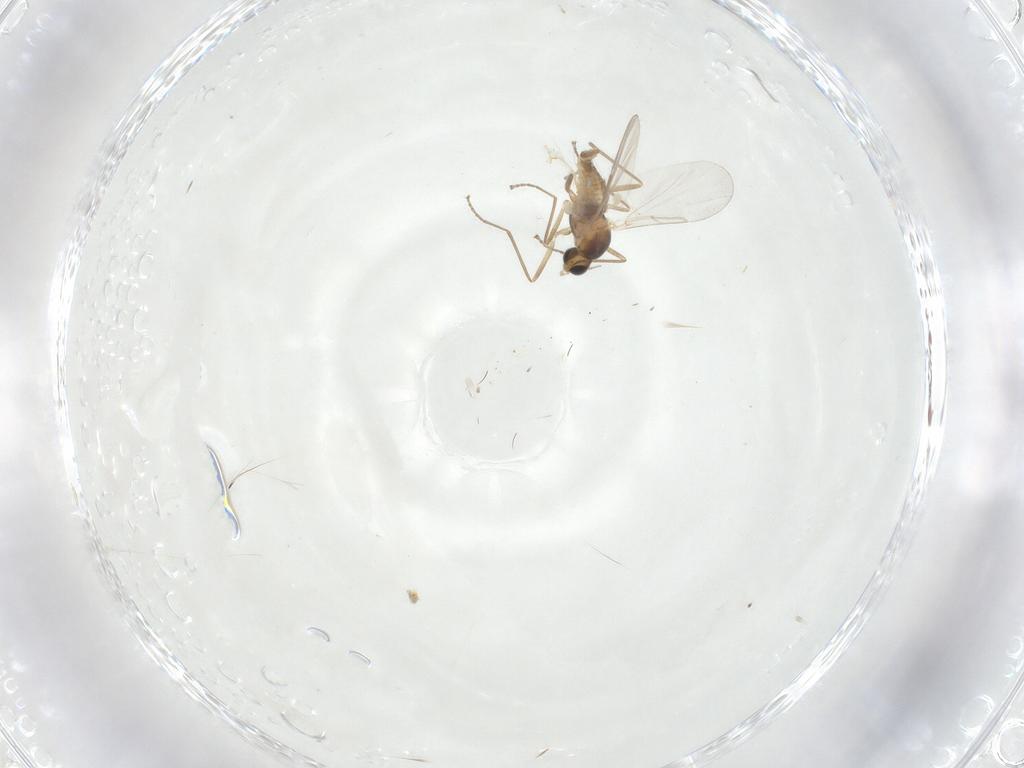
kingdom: Animalia
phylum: Arthropoda
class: Insecta
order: Diptera
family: Cecidomyiidae
